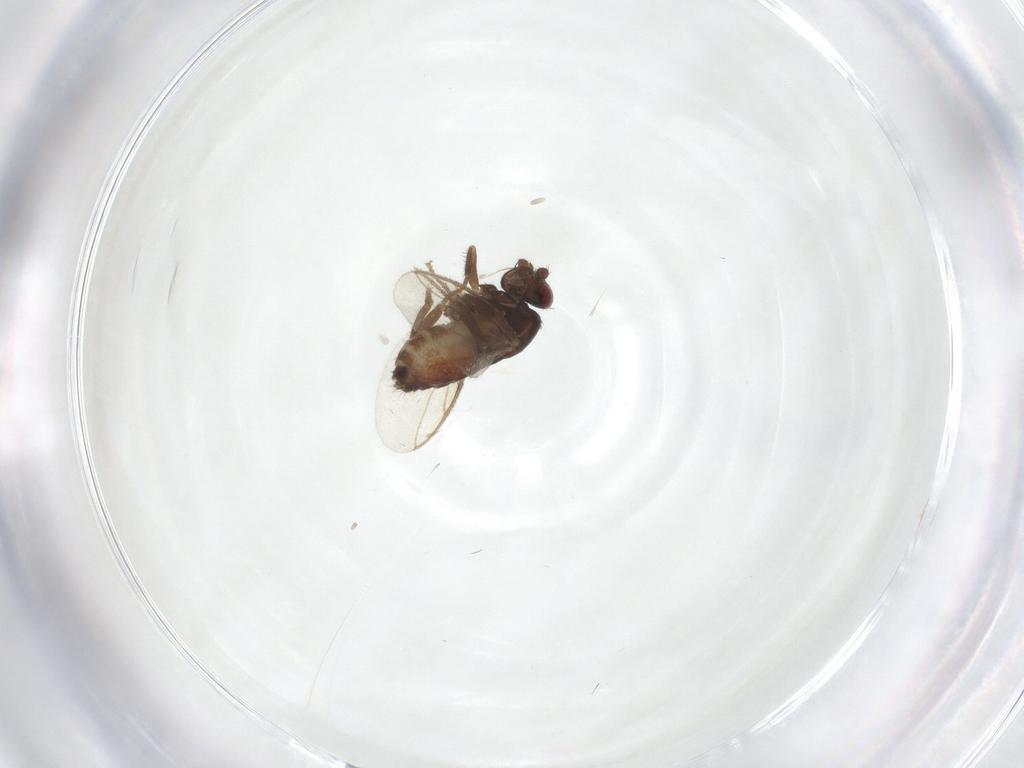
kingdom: Animalia
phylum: Arthropoda
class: Insecta
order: Diptera
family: Sphaeroceridae
